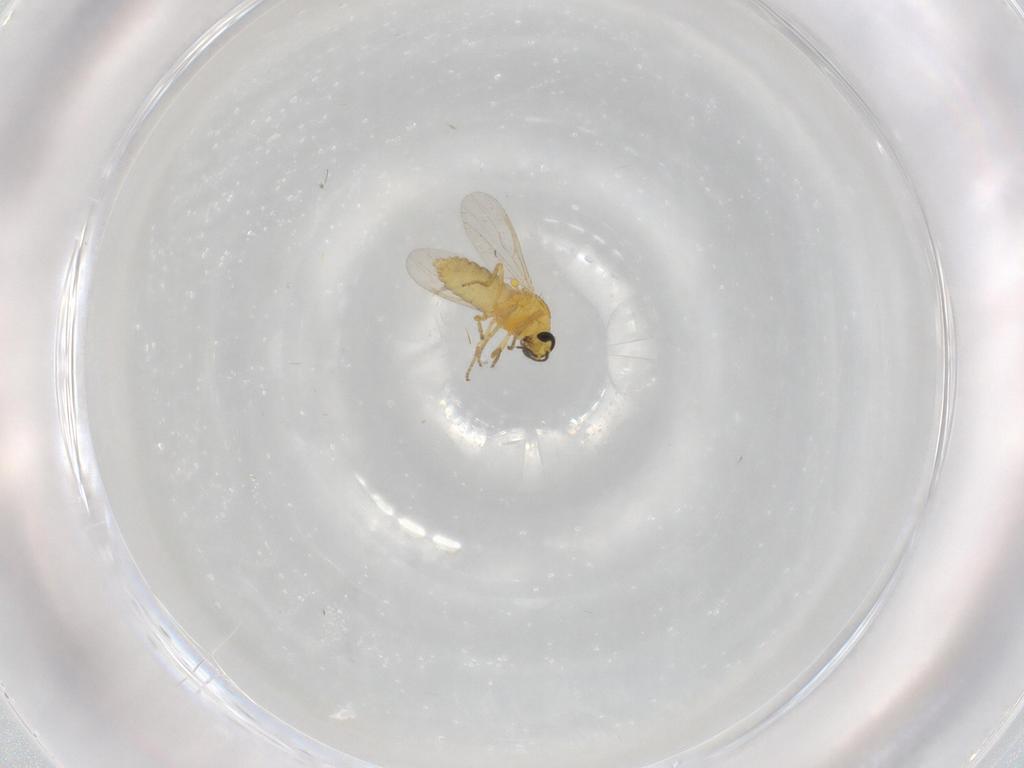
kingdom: Animalia
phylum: Arthropoda
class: Insecta
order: Diptera
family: Ceratopogonidae
